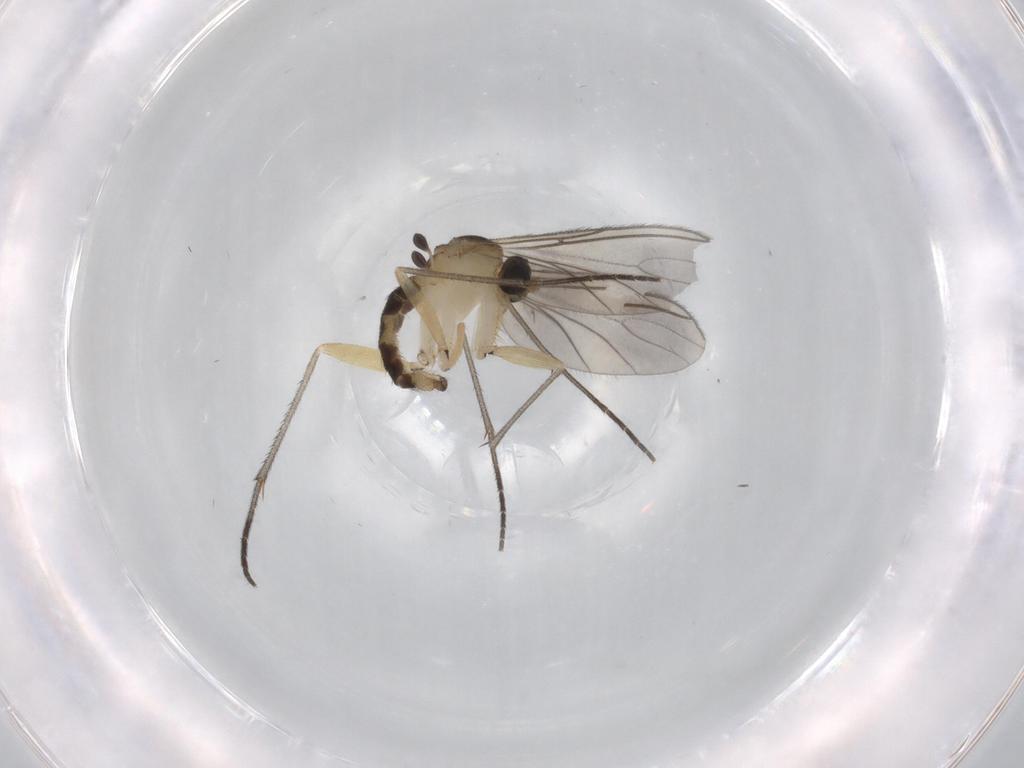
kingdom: Animalia
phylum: Arthropoda
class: Insecta
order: Diptera
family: Sciaridae
